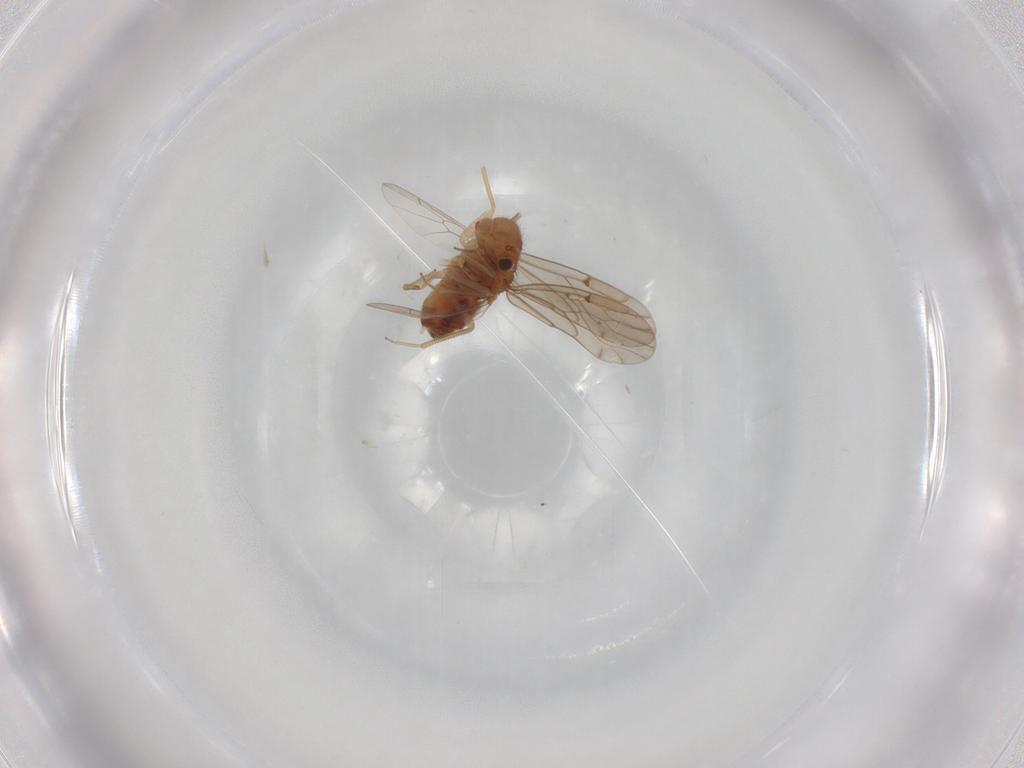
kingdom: Animalia
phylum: Arthropoda
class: Insecta
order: Psocodea
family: Ectopsocidae
